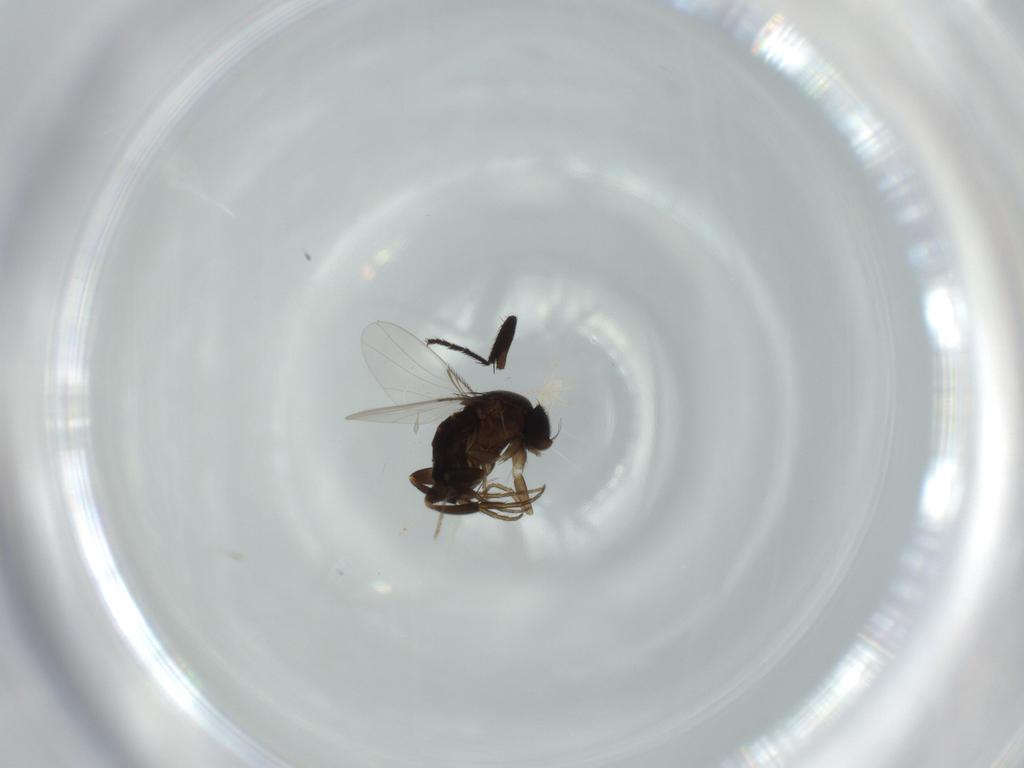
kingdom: Animalia
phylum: Arthropoda
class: Insecta
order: Diptera
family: Phoridae
